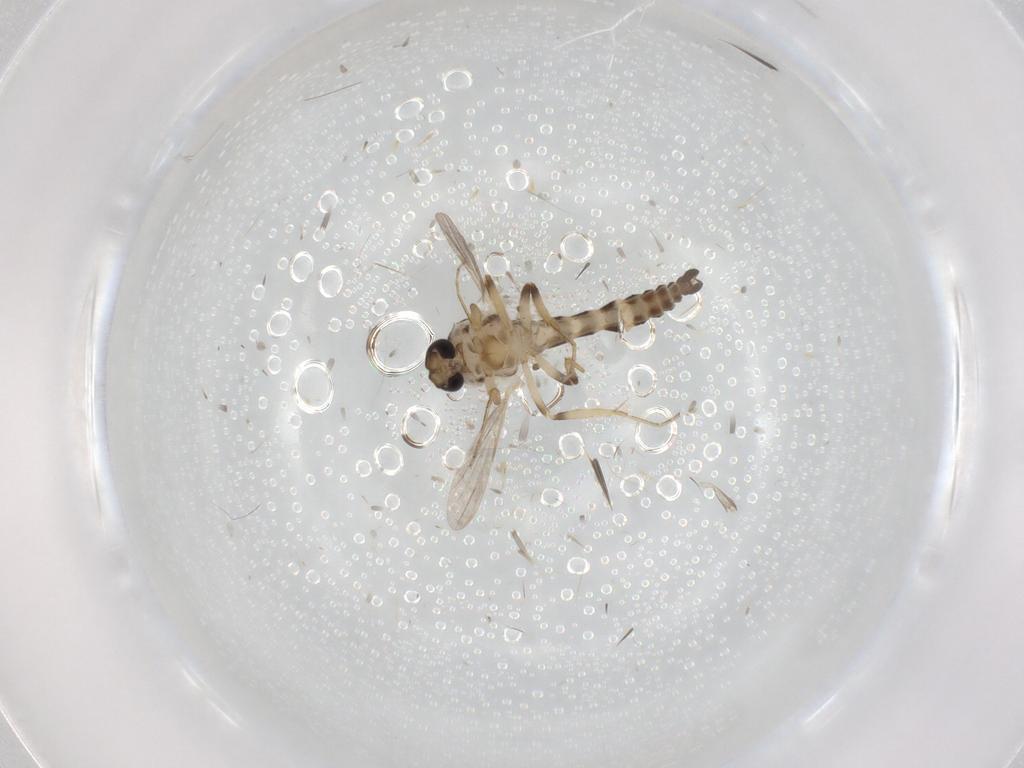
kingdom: Animalia
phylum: Arthropoda
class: Insecta
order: Diptera
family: Ceratopogonidae
